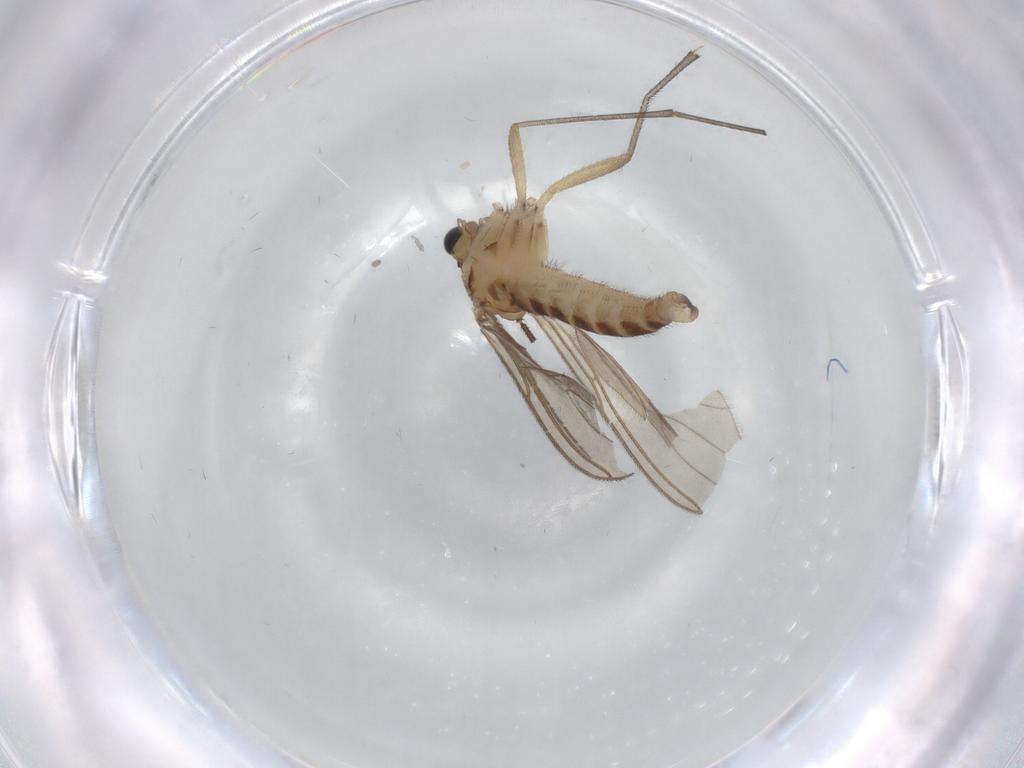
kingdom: Animalia
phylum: Arthropoda
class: Insecta
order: Diptera
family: Sciaridae
